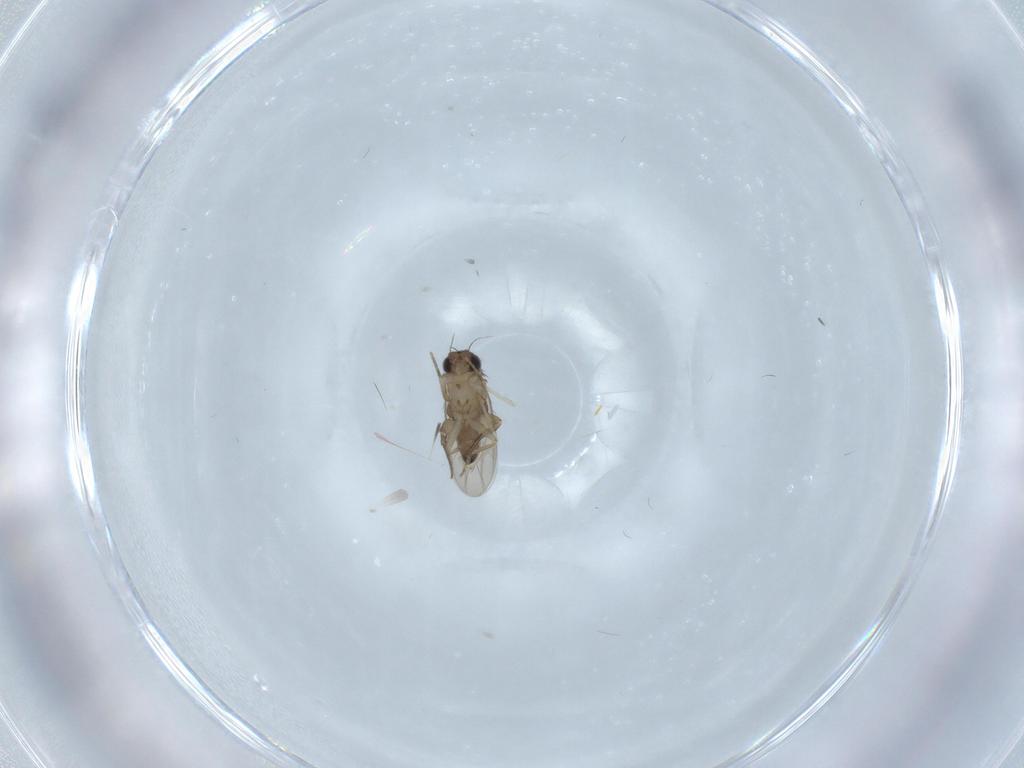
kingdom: Animalia
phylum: Arthropoda
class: Insecta
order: Diptera
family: Phoridae
